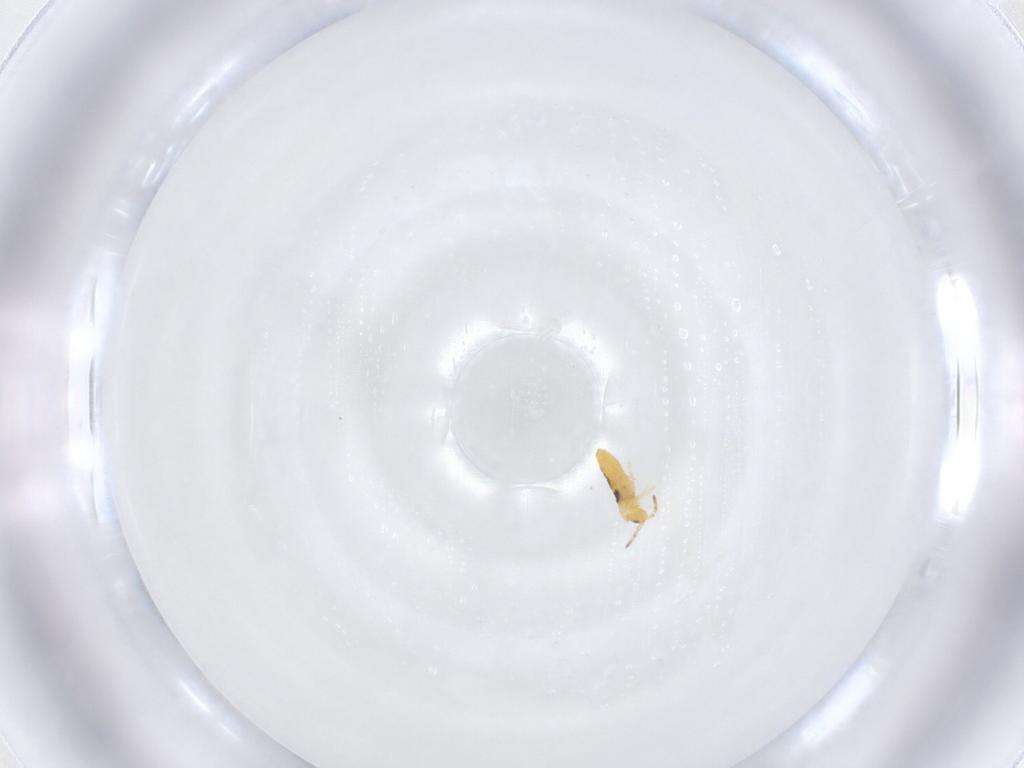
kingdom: Animalia
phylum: Arthropoda
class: Collembola
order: Entomobryomorpha
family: Entomobryidae
